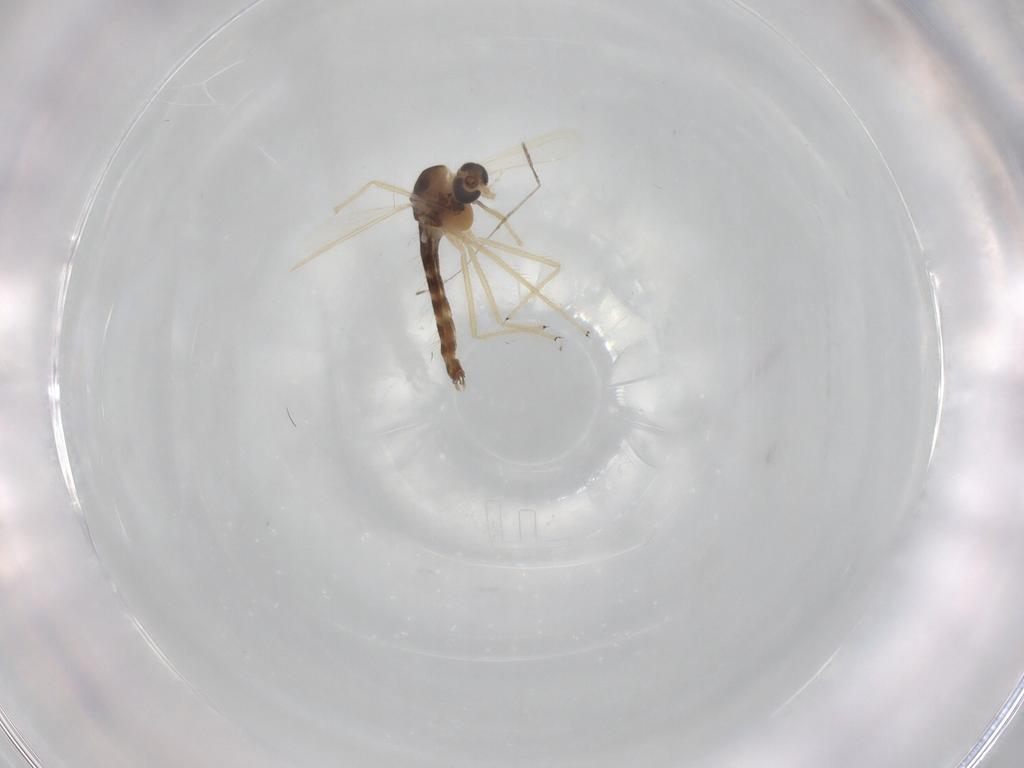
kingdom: Animalia
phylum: Arthropoda
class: Insecta
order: Diptera
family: Chironomidae
